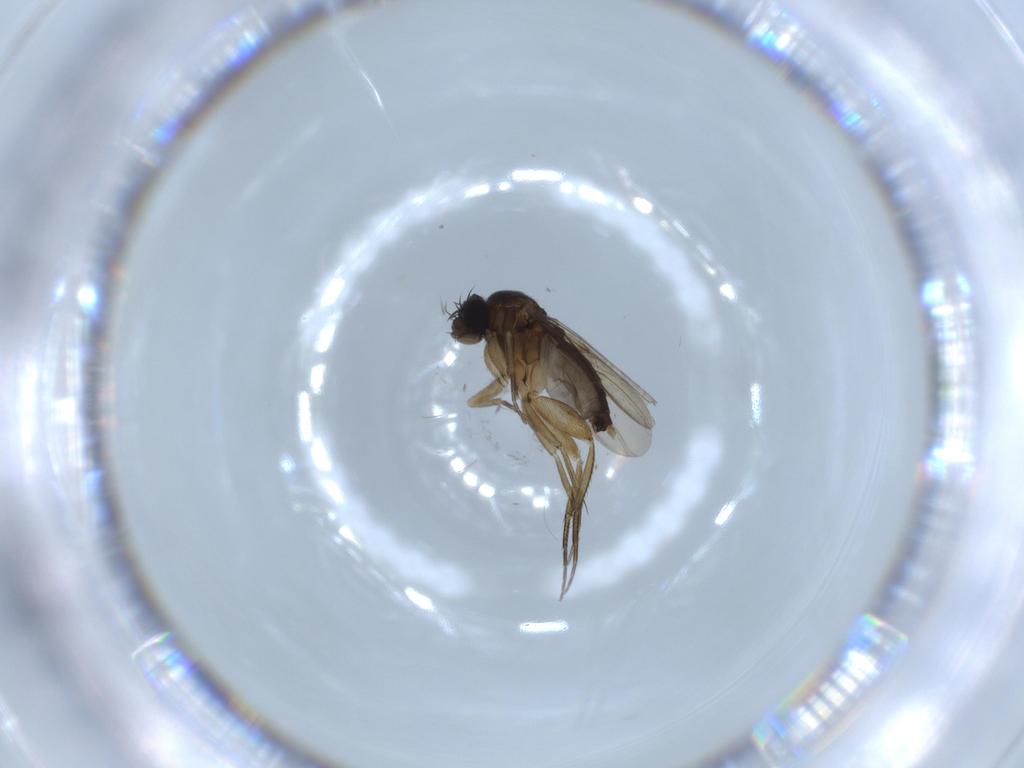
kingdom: Animalia
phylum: Arthropoda
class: Insecta
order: Diptera
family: Phoridae
